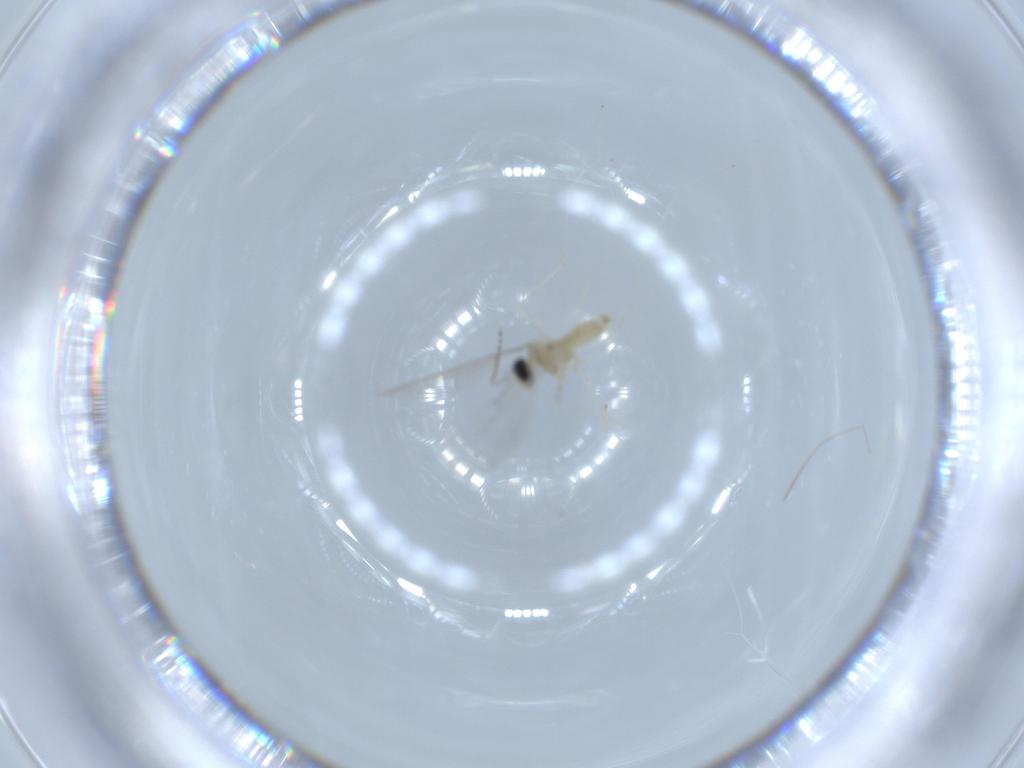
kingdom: Animalia
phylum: Arthropoda
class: Insecta
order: Diptera
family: Cecidomyiidae
